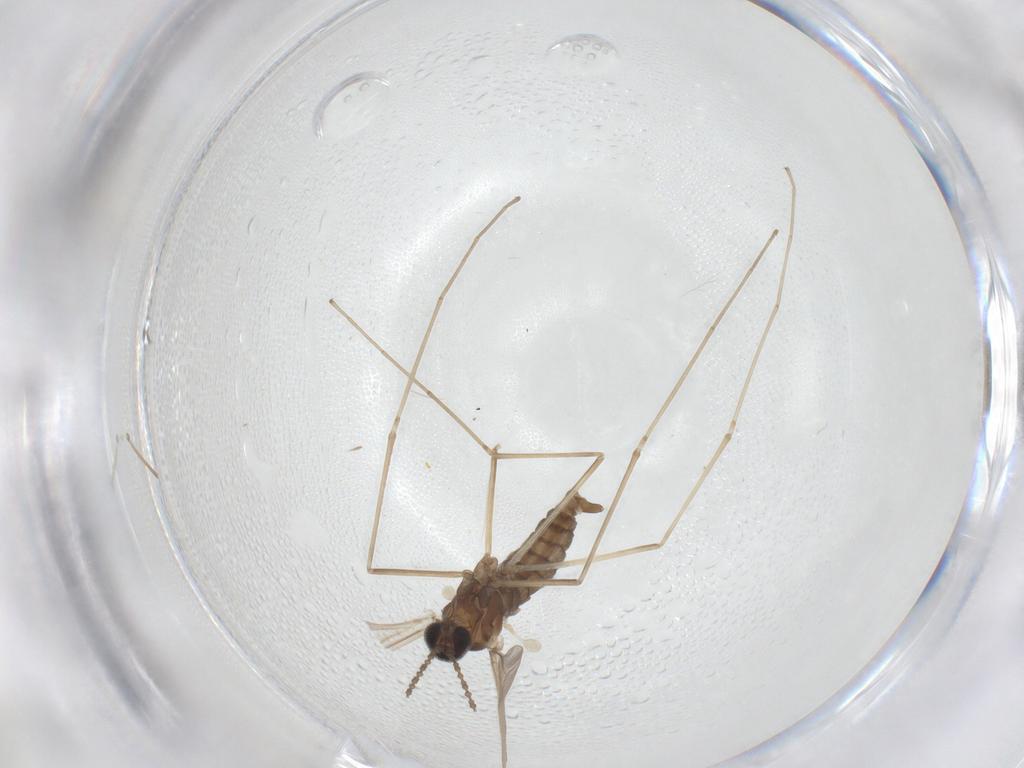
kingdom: Animalia
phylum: Arthropoda
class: Insecta
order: Diptera
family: Cecidomyiidae
